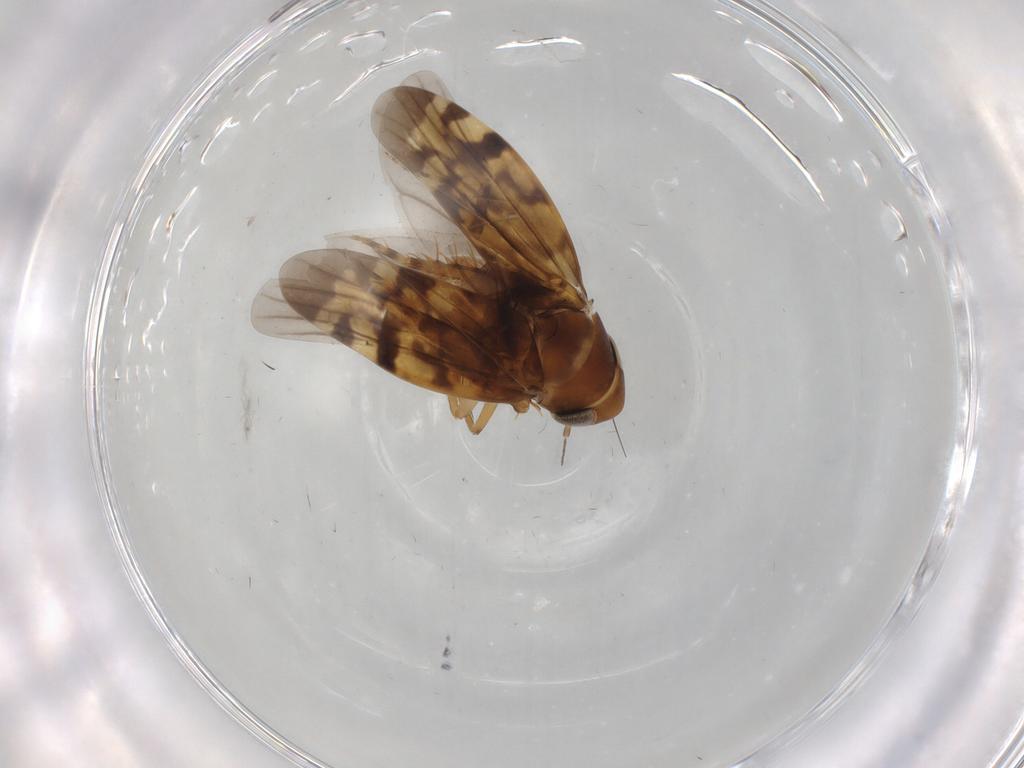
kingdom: Animalia
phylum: Arthropoda
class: Insecta
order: Hemiptera
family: Cicadellidae
